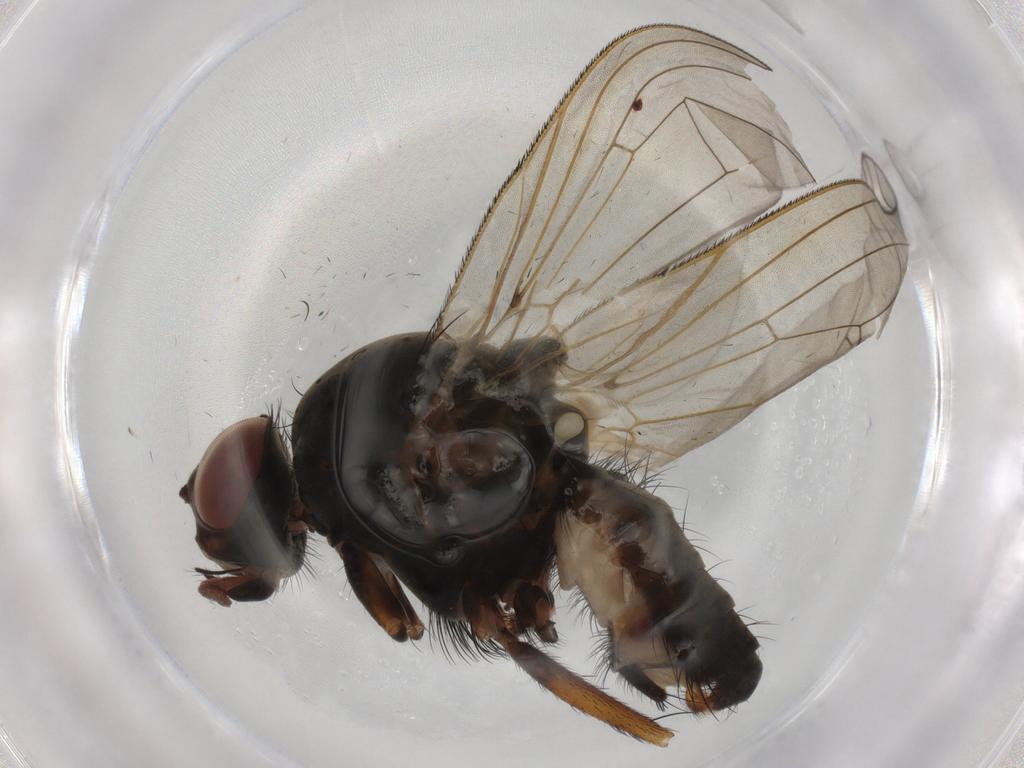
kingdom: Animalia
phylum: Arthropoda
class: Insecta
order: Diptera
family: Anthomyiidae
